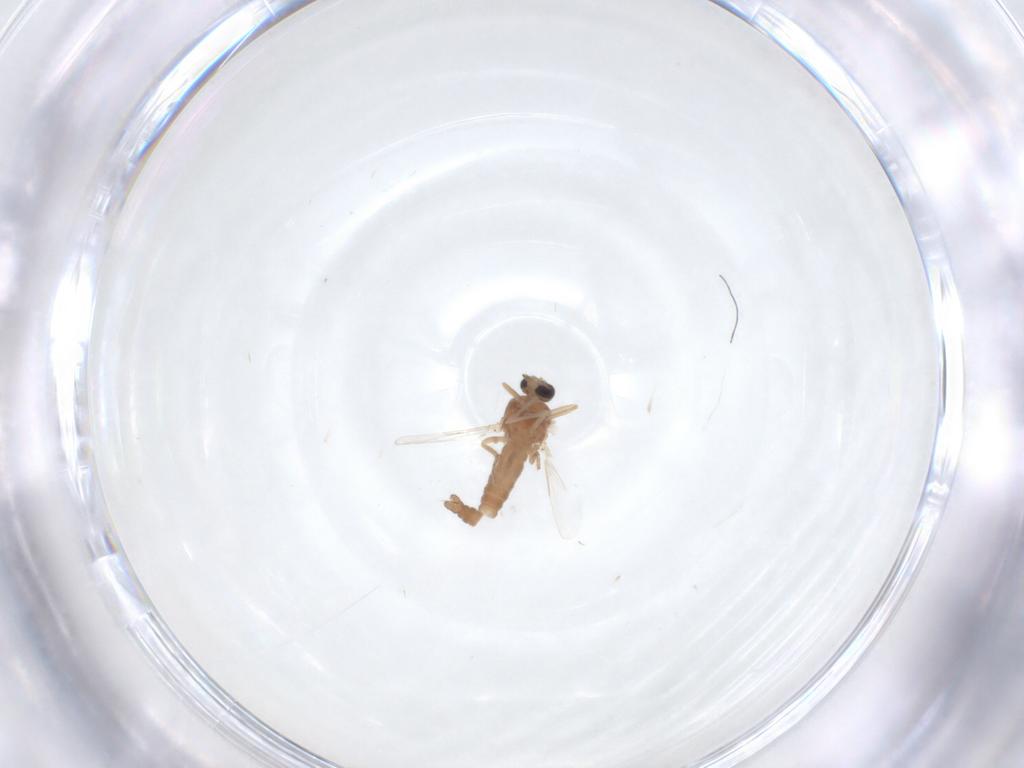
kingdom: Animalia
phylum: Arthropoda
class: Insecta
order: Diptera
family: Ceratopogonidae
